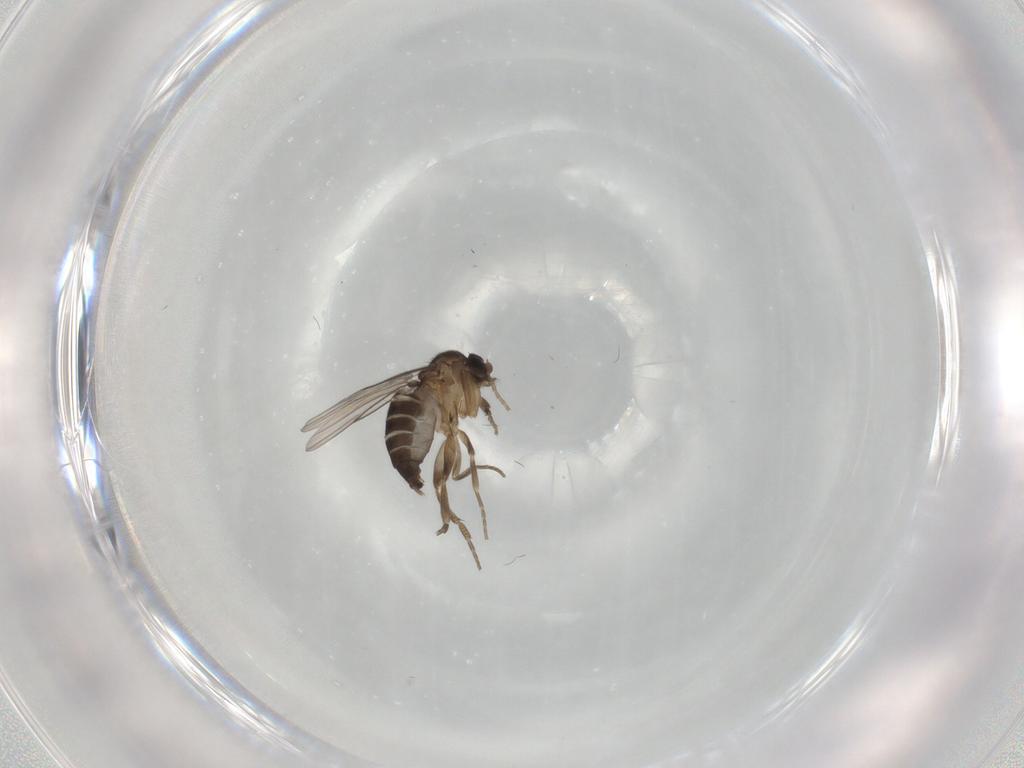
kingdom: Animalia
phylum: Arthropoda
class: Insecta
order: Diptera
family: Phoridae
